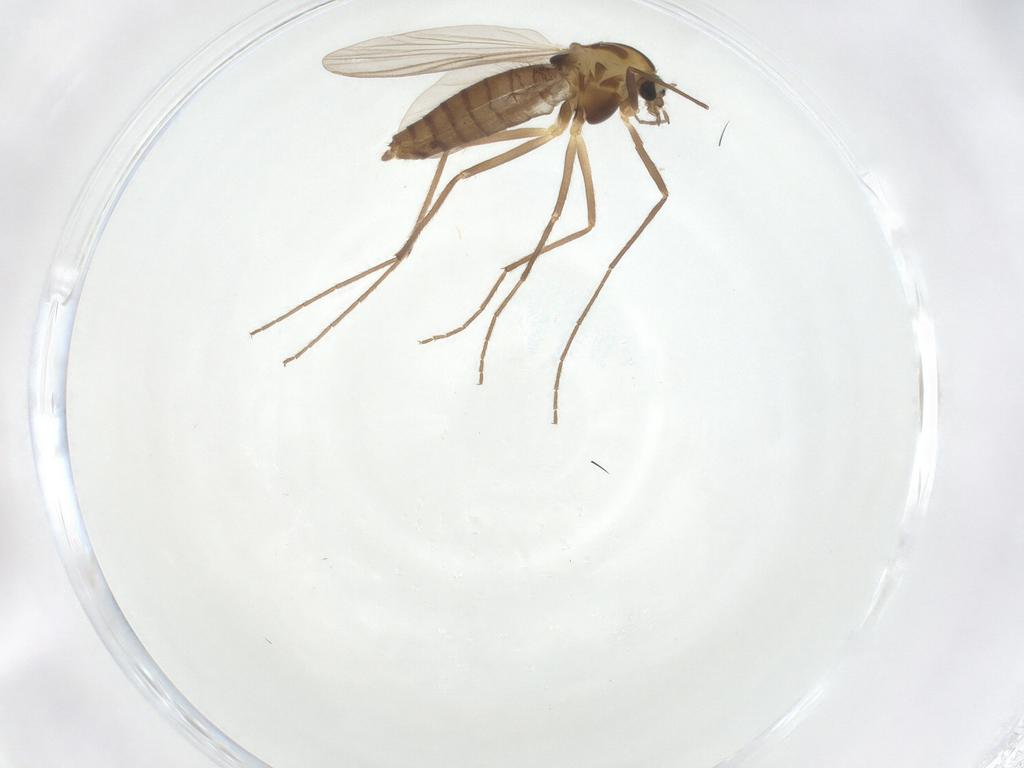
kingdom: Animalia
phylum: Arthropoda
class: Insecta
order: Diptera
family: Chironomidae
